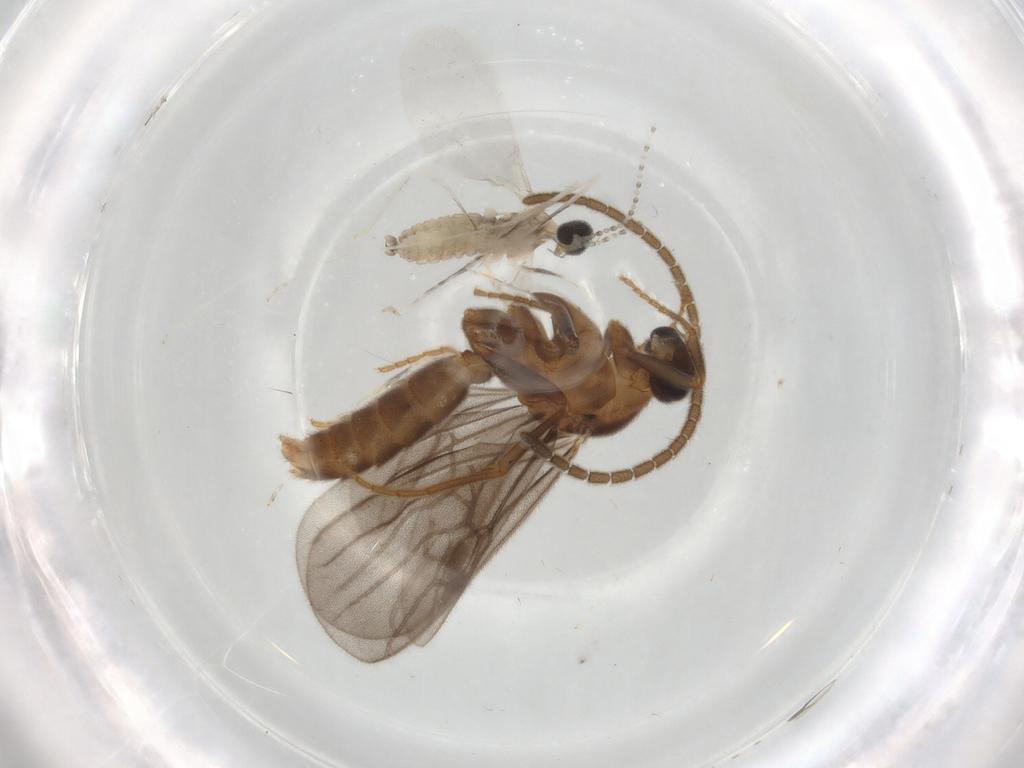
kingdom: Animalia
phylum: Arthropoda
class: Insecta
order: Hymenoptera
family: Formicidae
